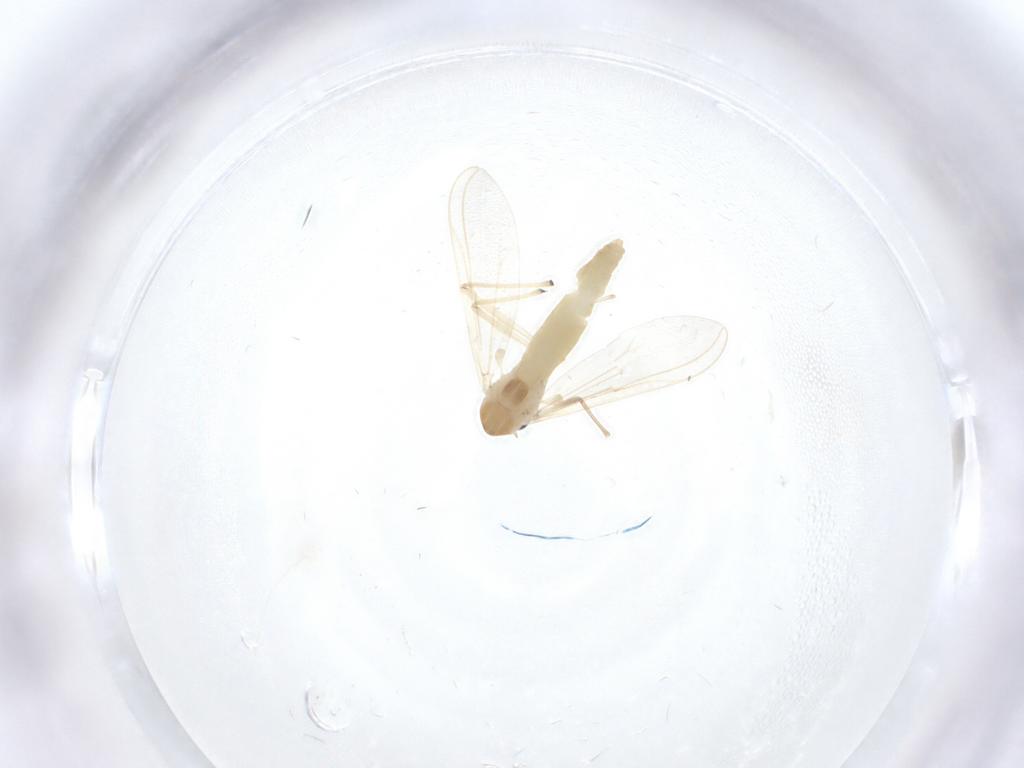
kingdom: Animalia
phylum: Arthropoda
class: Insecta
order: Diptera
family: Chironomidae
